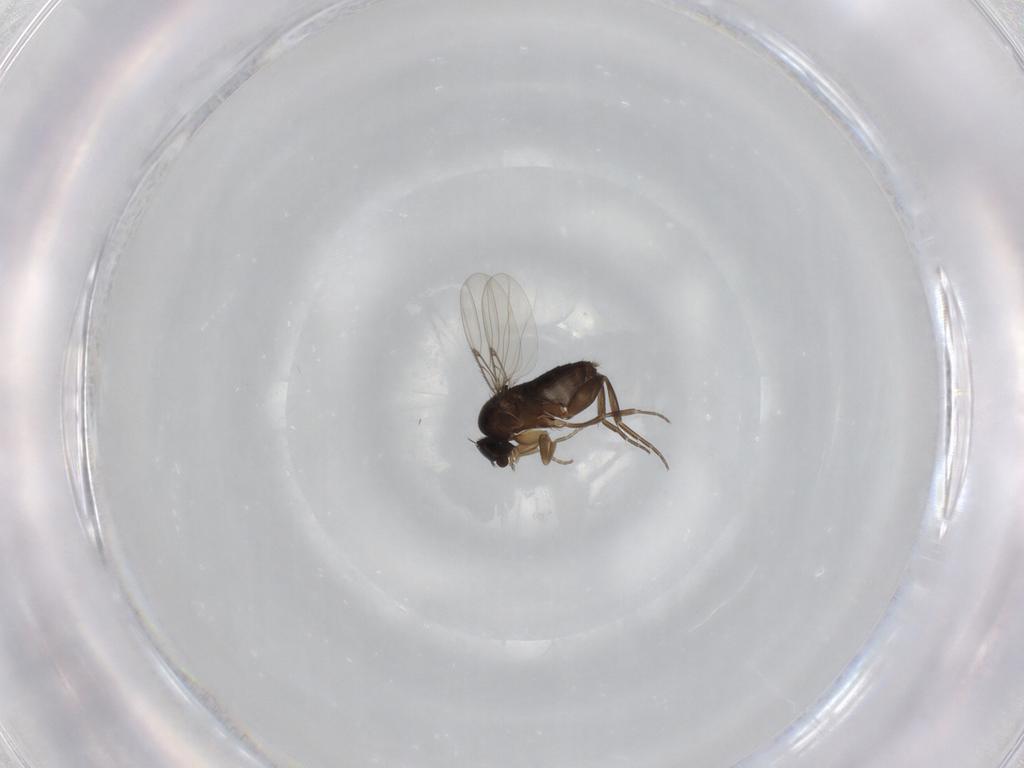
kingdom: Animalia
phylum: Arthropoda
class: Insecta
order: Diptera
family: Phoridae
